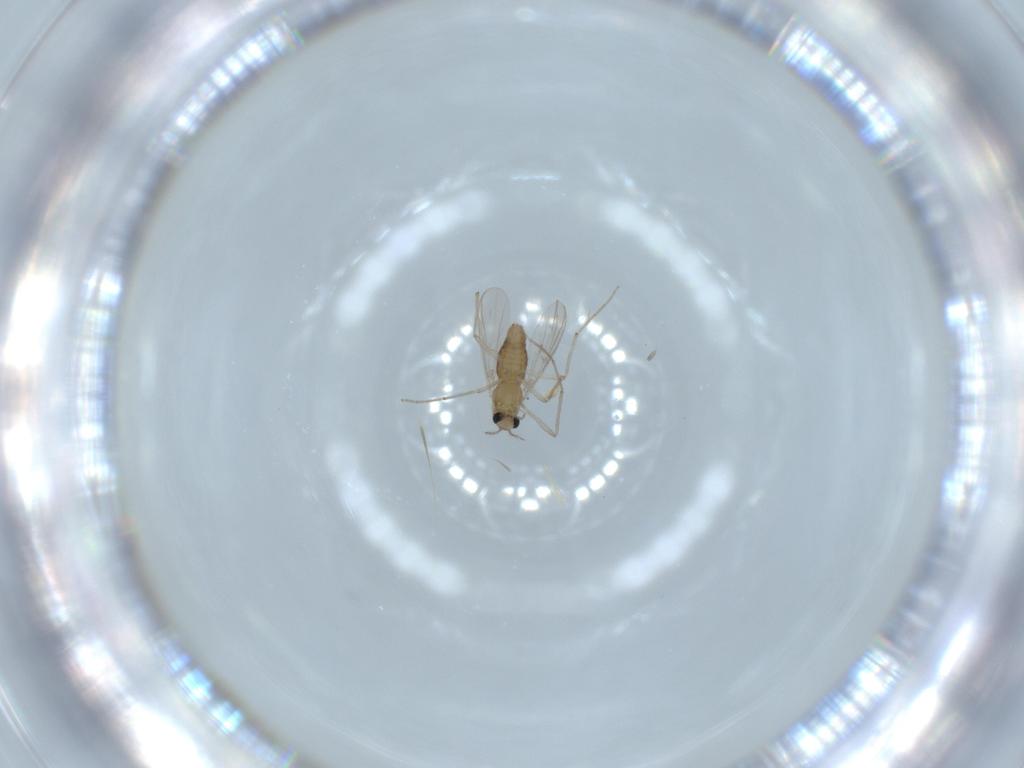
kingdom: Animalia
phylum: Arthropoda
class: Insecta
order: Diptera
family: Chironomidae
